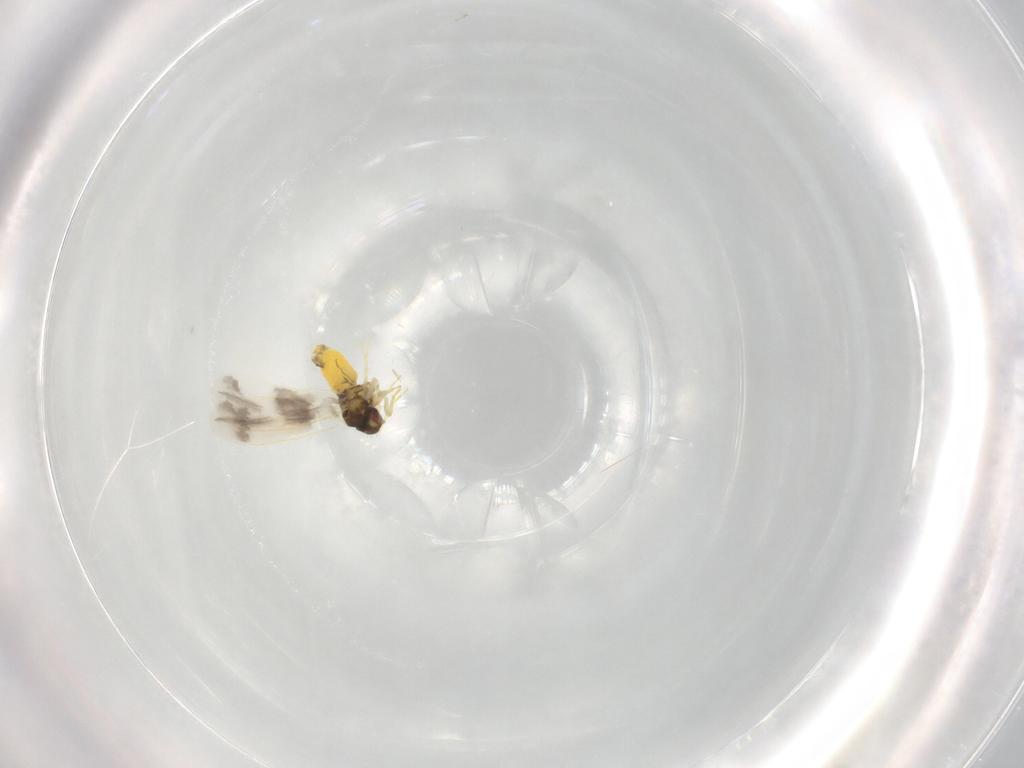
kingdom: Animalia
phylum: Arthropoda
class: Insecta
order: Hemiptera
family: Aleyrodidae
